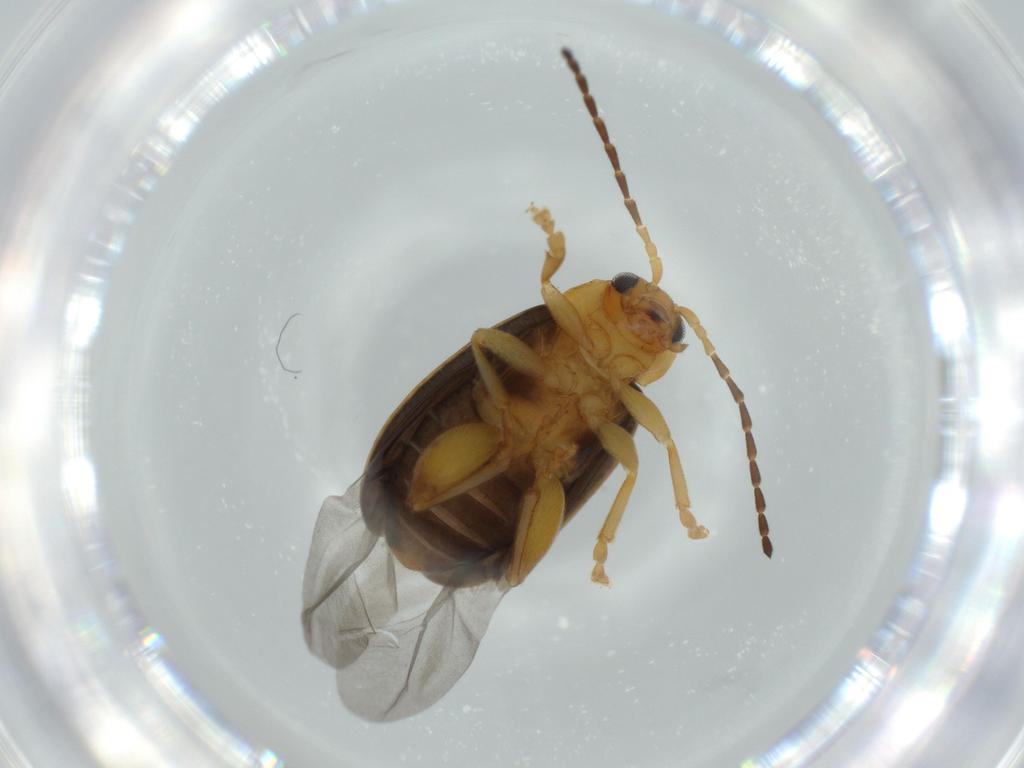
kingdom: Animalia
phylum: Arthropoda
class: Insecta
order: Coleoptera
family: Chrysomelidae
